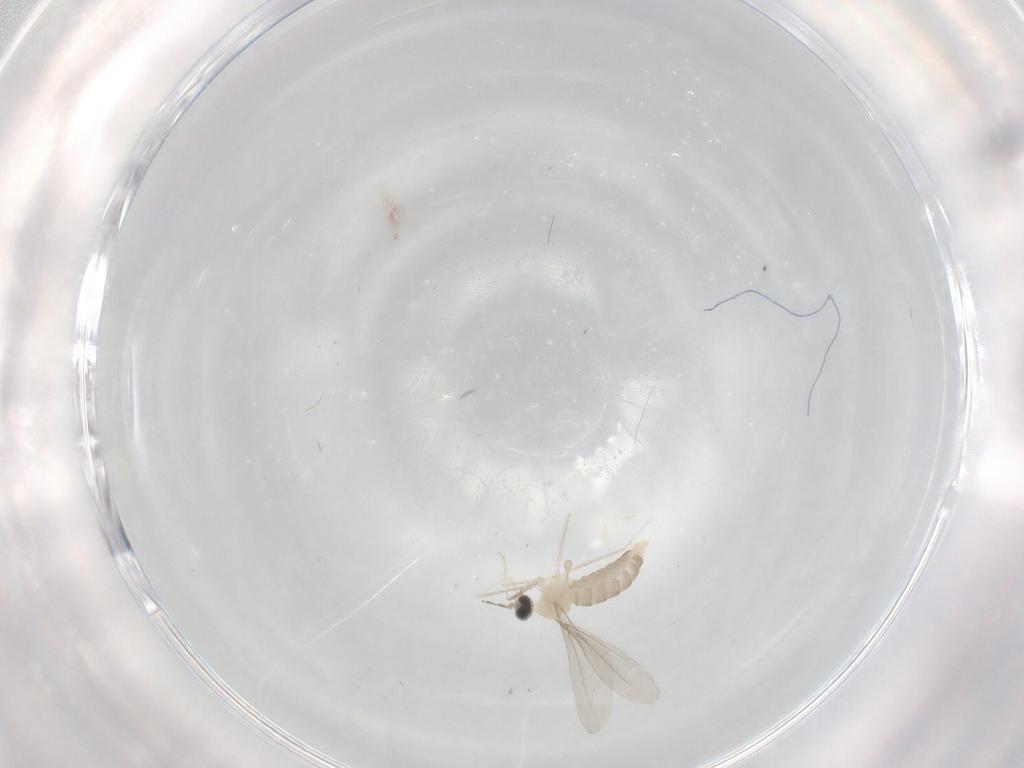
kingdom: Animalia
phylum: Arthropoda
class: Insecta
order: Diptera
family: Cecidomyiidae
